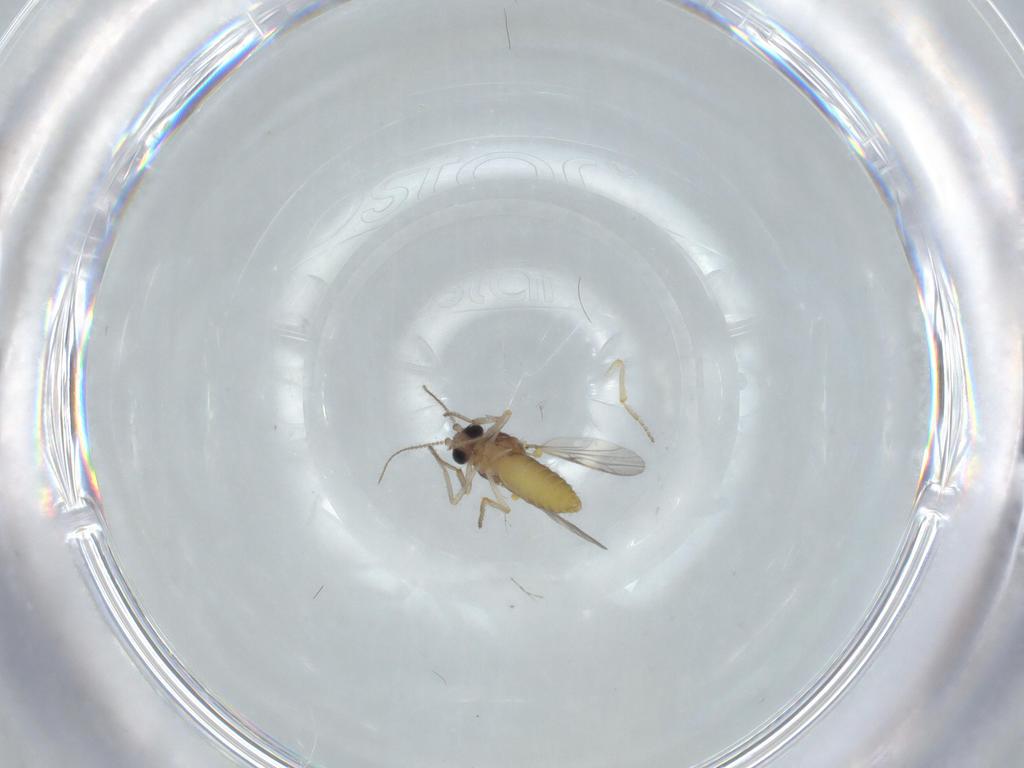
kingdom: Animalia
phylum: Arthropoda
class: Insecta
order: Diptera
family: Ceratopogonidae
